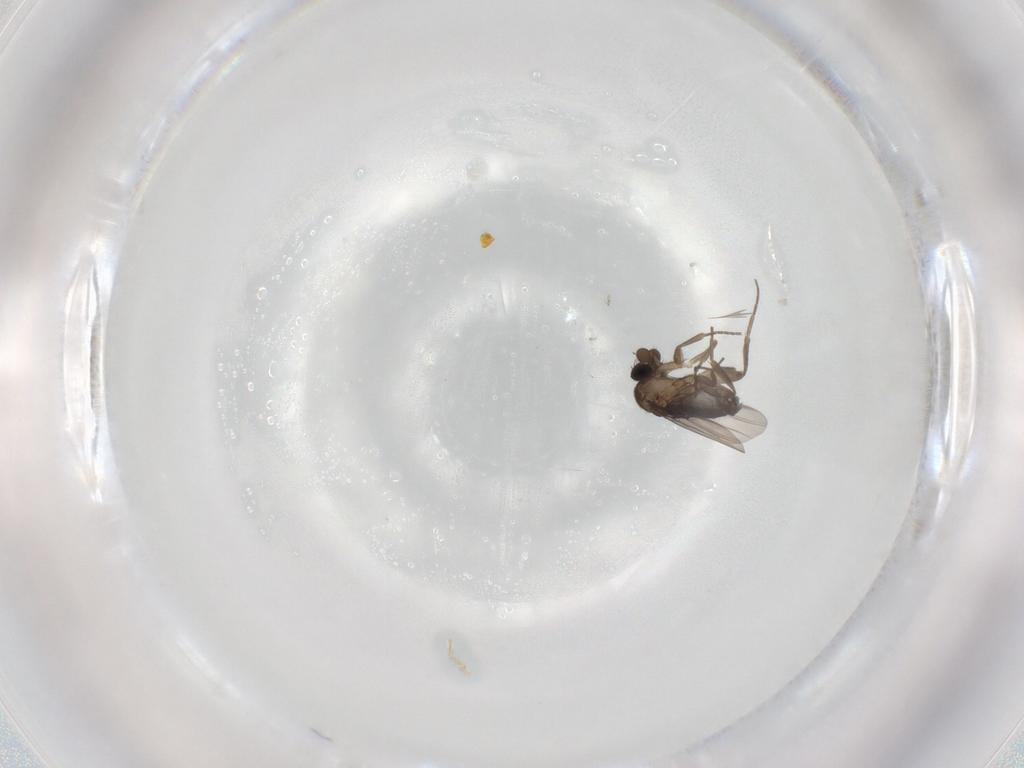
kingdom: Animalia
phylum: Arthropoda
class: Insecta
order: Diptera
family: Phoridae
